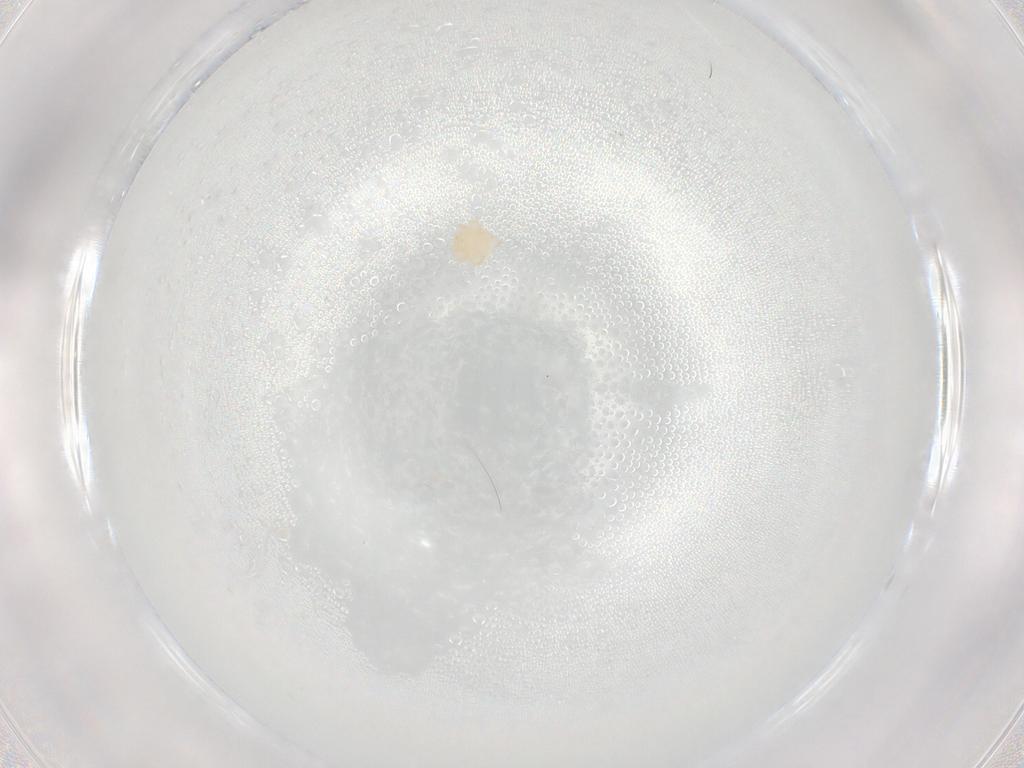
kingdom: Animalia
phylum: Arthropoda
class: Arachnida
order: Trombidiformes
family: Sperchontidae
